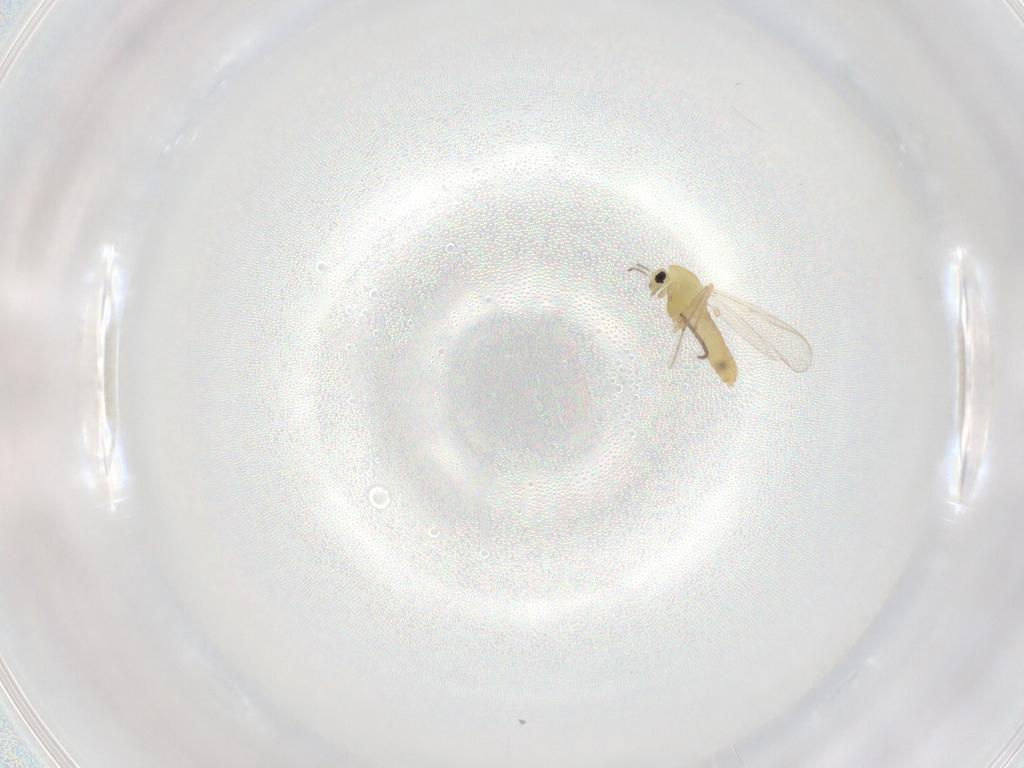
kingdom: Animalia
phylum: Arthropoda
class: Insecta
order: Diptera
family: Chironomidae
